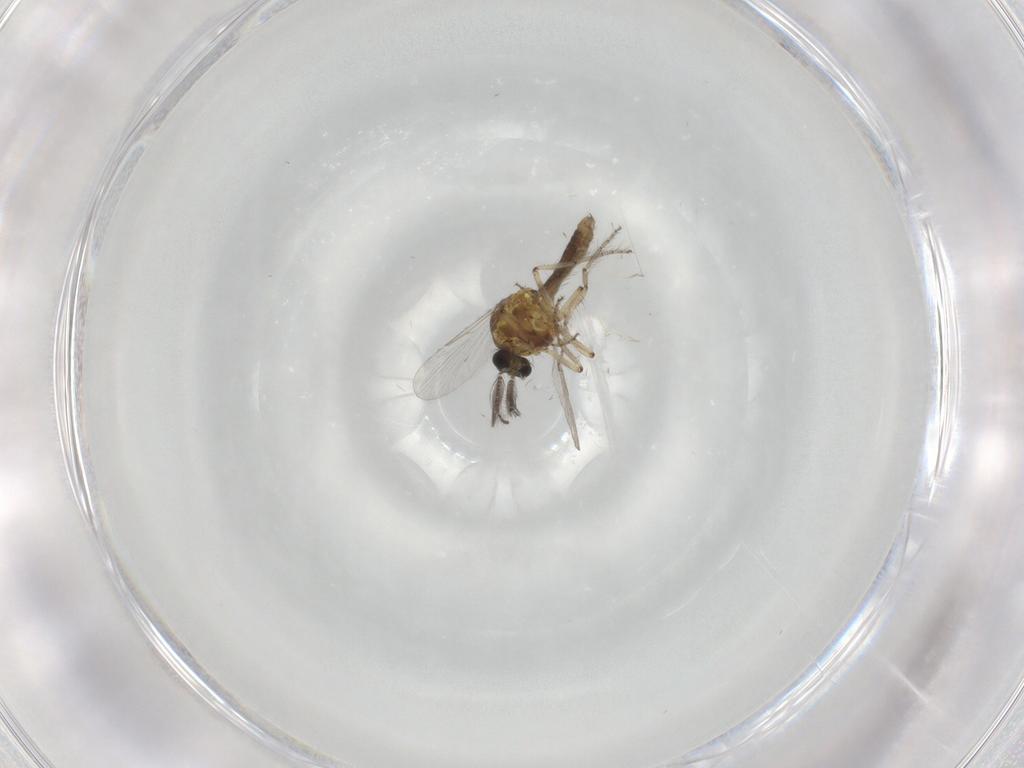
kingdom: Animalia
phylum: Arthropoda
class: Insecta
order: Diptera
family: Ceratopogonidae
